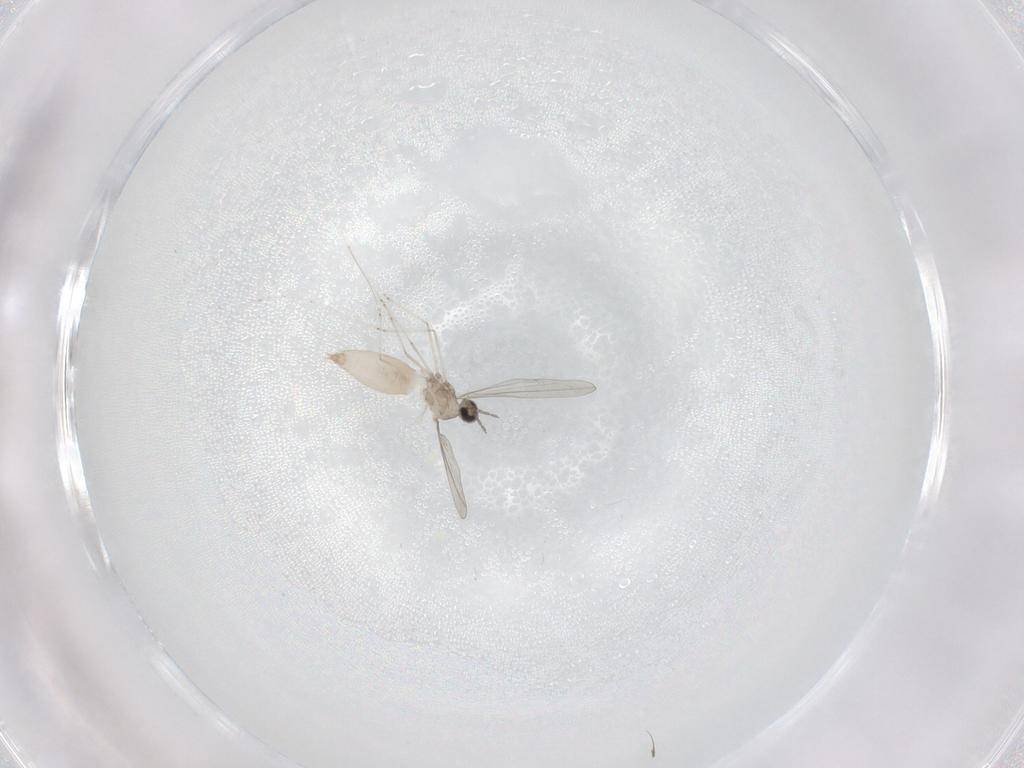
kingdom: Animalia
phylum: Arthropoda
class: Insecta
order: Diptera
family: Cecidomyiidae
